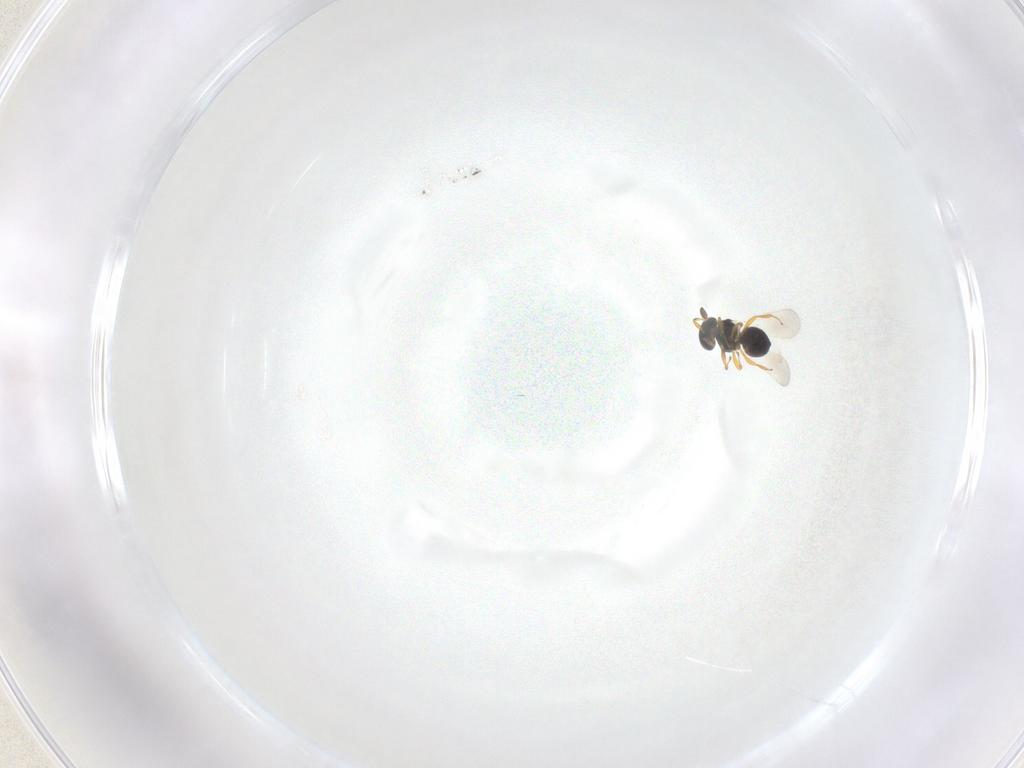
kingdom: Animalia
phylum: Arthropoda
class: Insecta
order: Hymenoptera
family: Platygastridae
